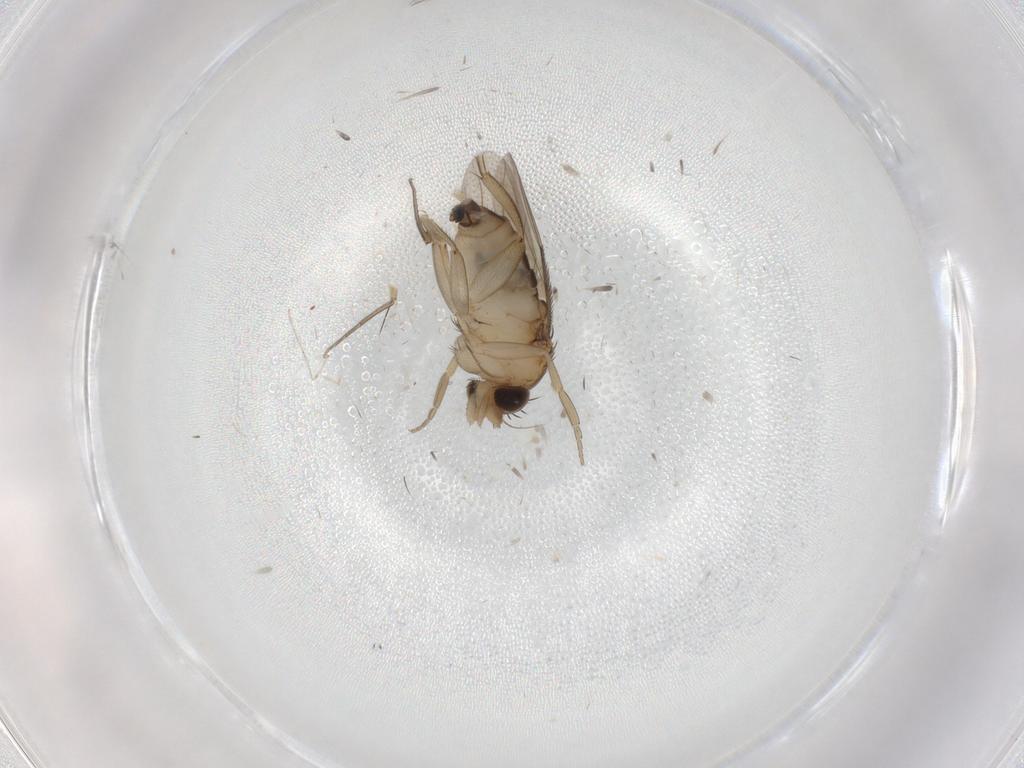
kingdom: Animalia
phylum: Arthropoda
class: Insecta
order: Diptera
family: Phoridae
